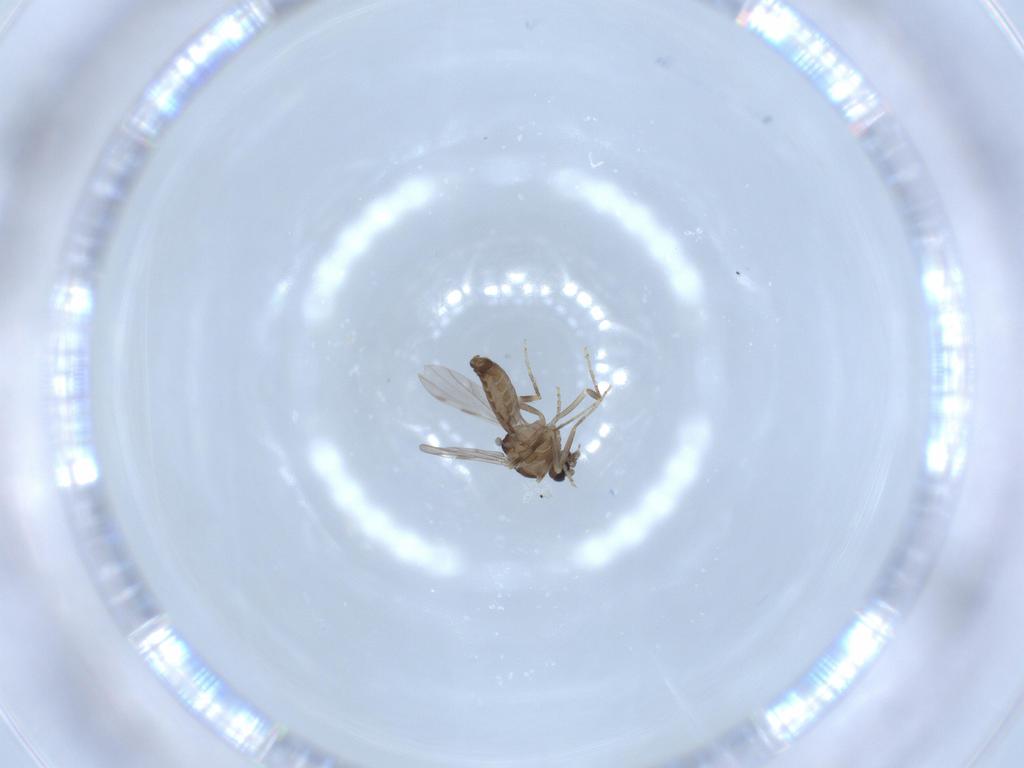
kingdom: Animalia
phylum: Arthropoda
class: Insecta
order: Diptera
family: Ceratopogonidae
